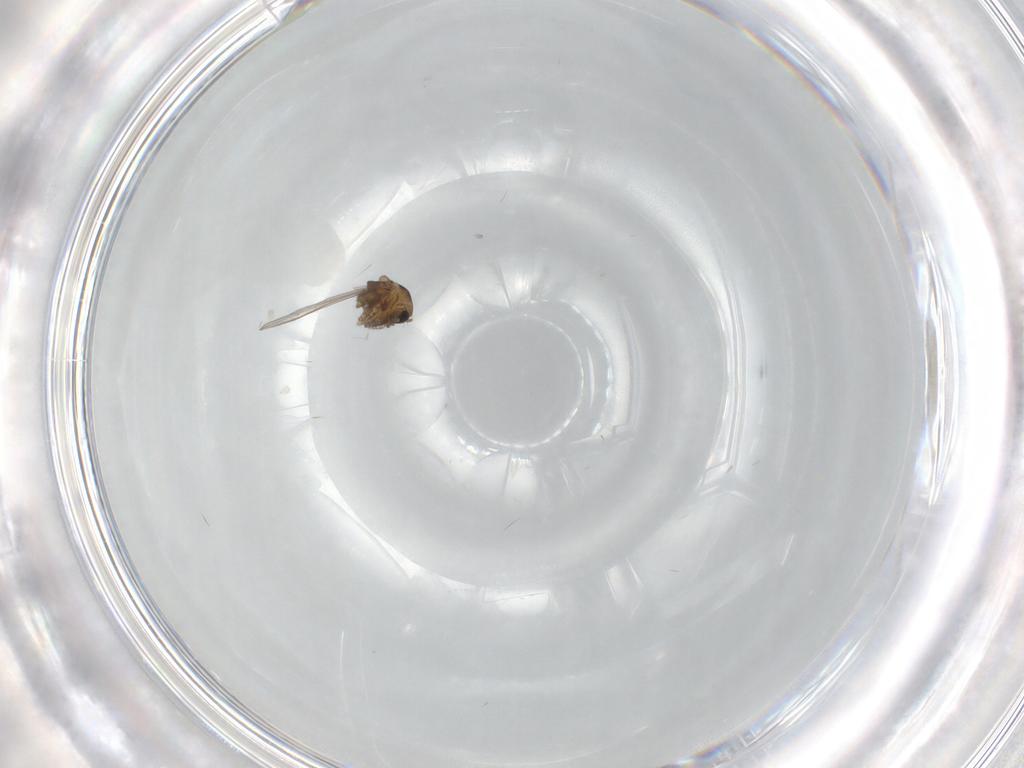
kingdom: Animalia
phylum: Arthropoda
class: Insecta
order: Diptera
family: Chironomidae
